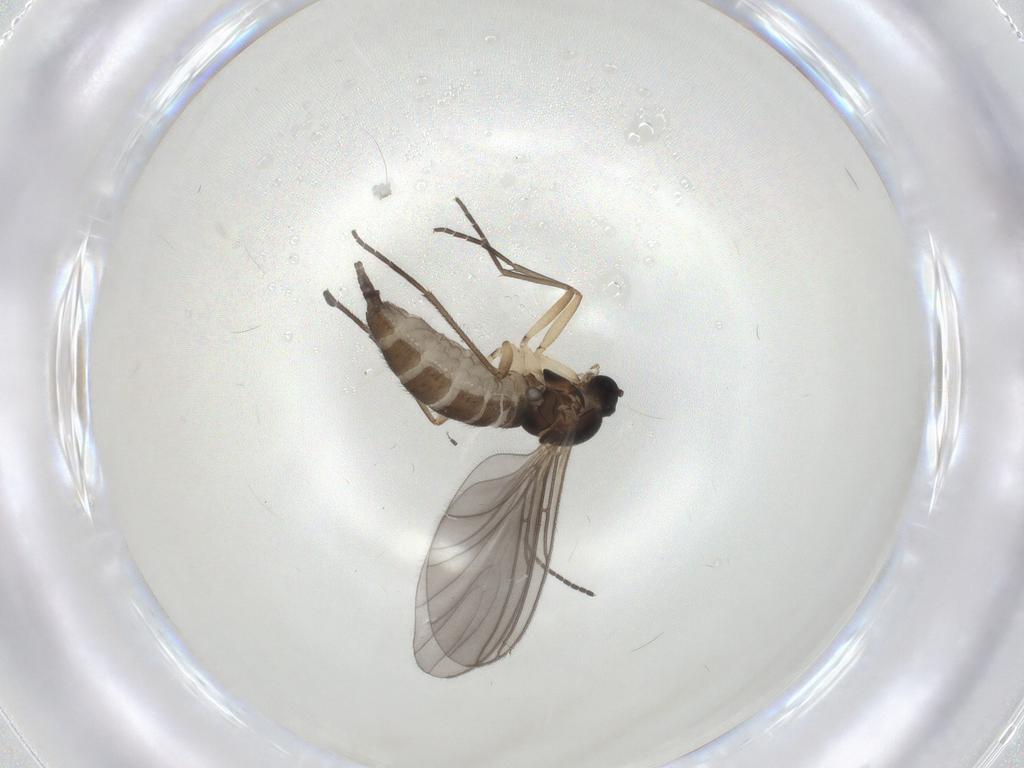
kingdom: Animalia
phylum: Arthropoda
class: Insecta
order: Diptera
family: Sciaridae
